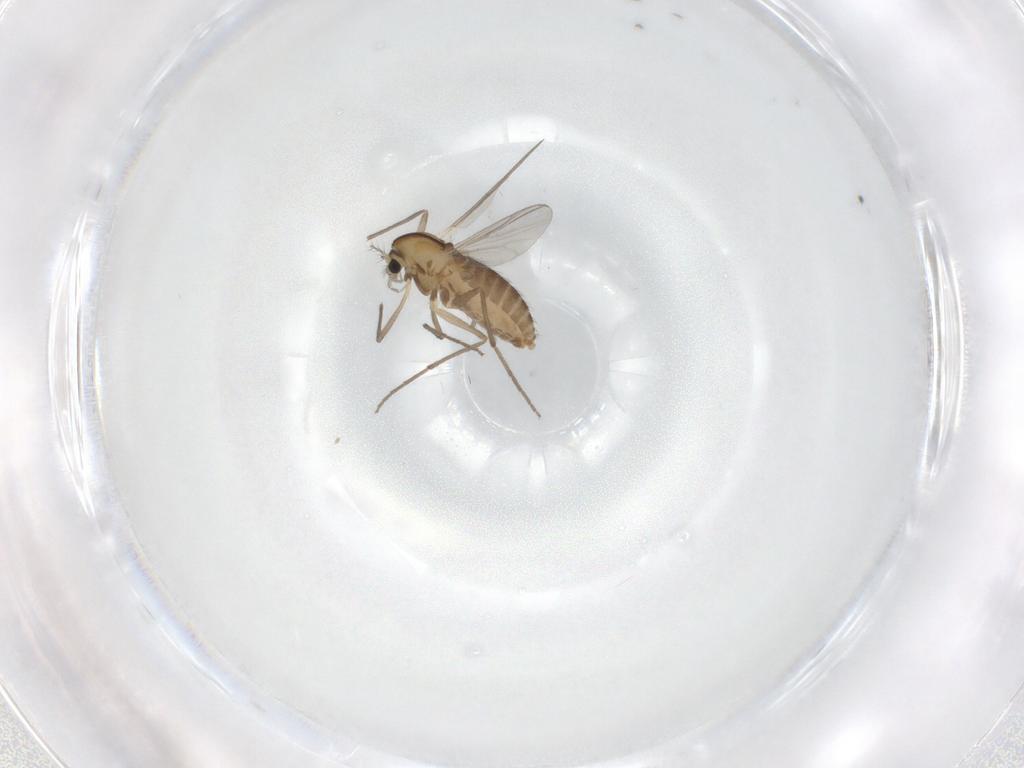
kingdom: Animalia
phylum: Arthropoda
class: Insecta
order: Diptera
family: Chironomidae
